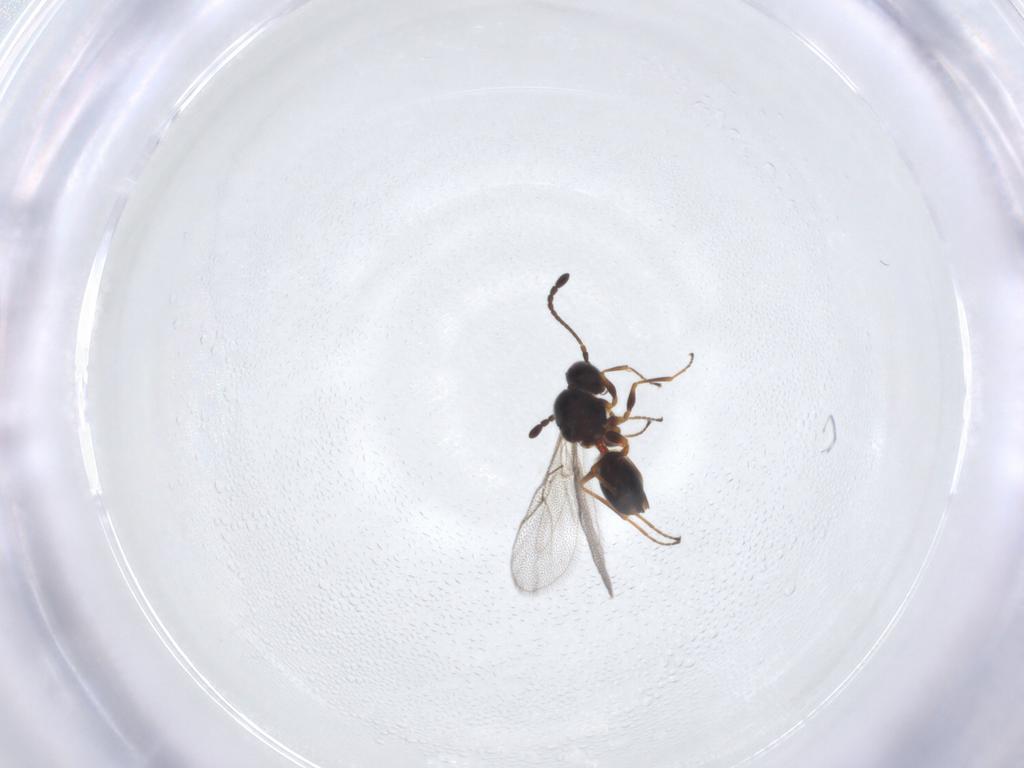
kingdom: Animalia
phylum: Arthropoda
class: Insecta
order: Hymenoptera
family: Figitidae
